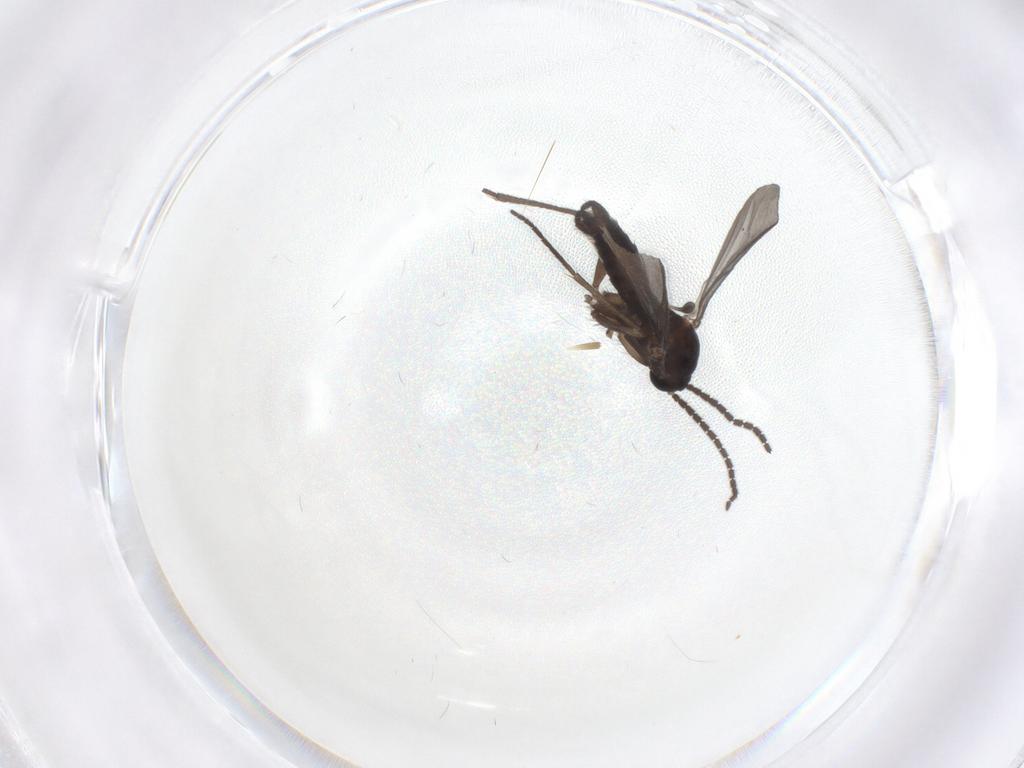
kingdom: Animalia
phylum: Arthropoda
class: Insecta
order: Diptera
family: Sciaridae
